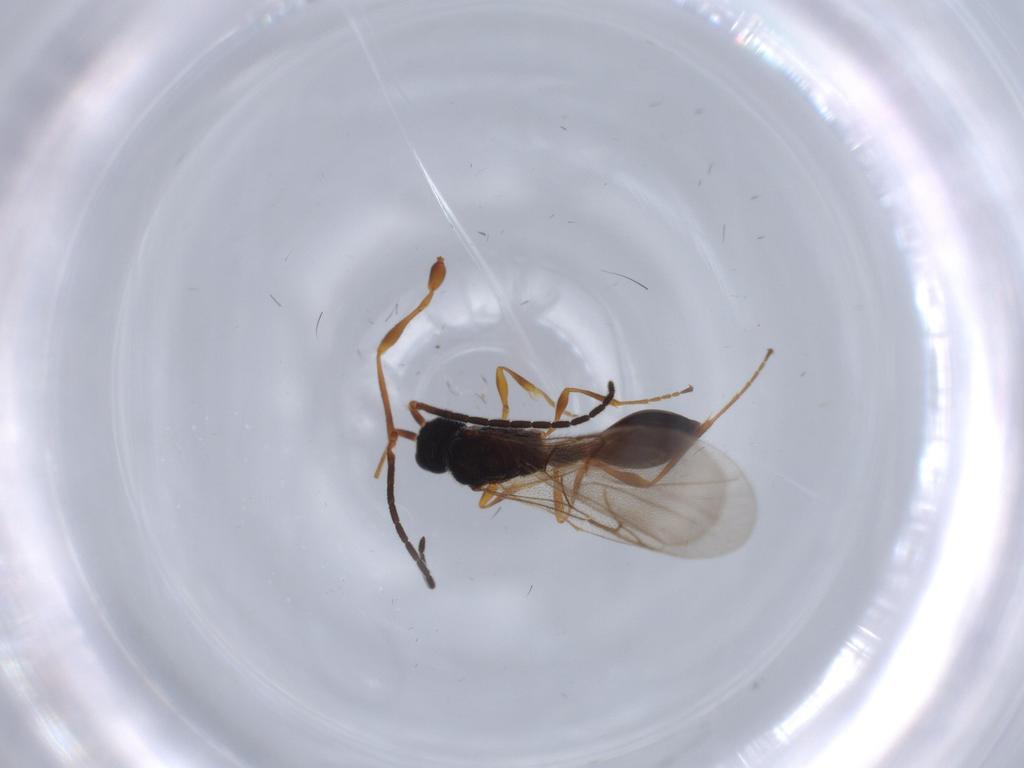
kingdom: Animalia
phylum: Arthropoda
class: Insecta
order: Hymenoptera
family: Diapriidae
